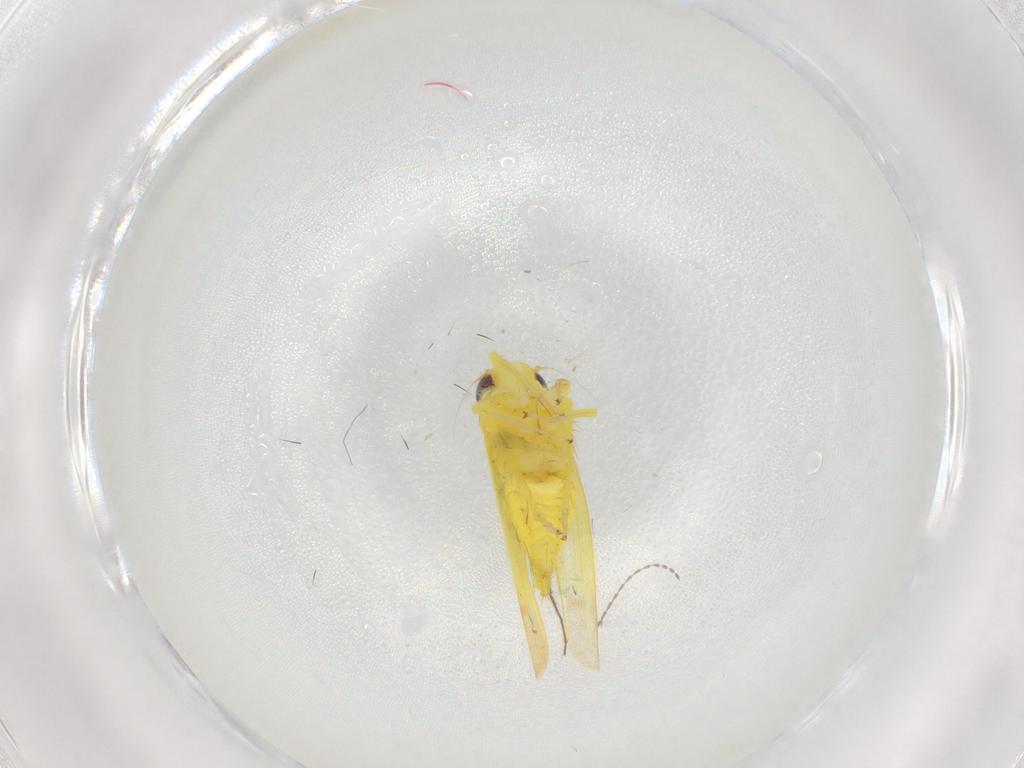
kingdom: Animalia
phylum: Arthropoda
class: Insecta
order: Hemiptera
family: Cicadellidae
